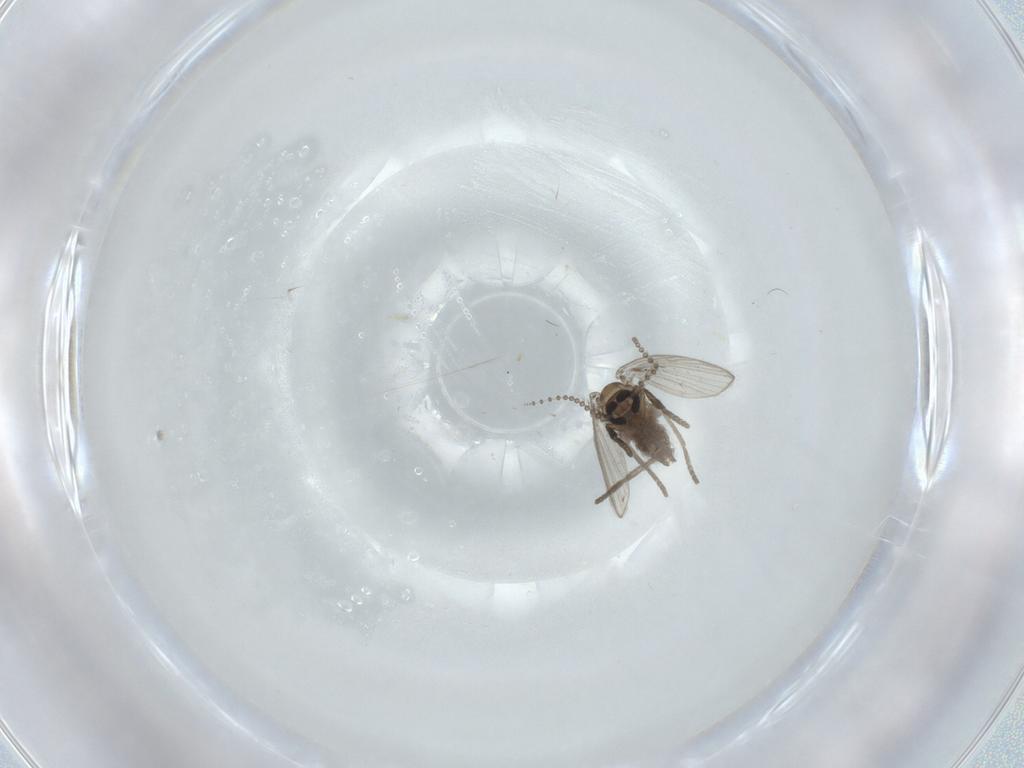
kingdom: Animalia
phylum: Arthropoda
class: Insecta
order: Diptera
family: Psychodidae
